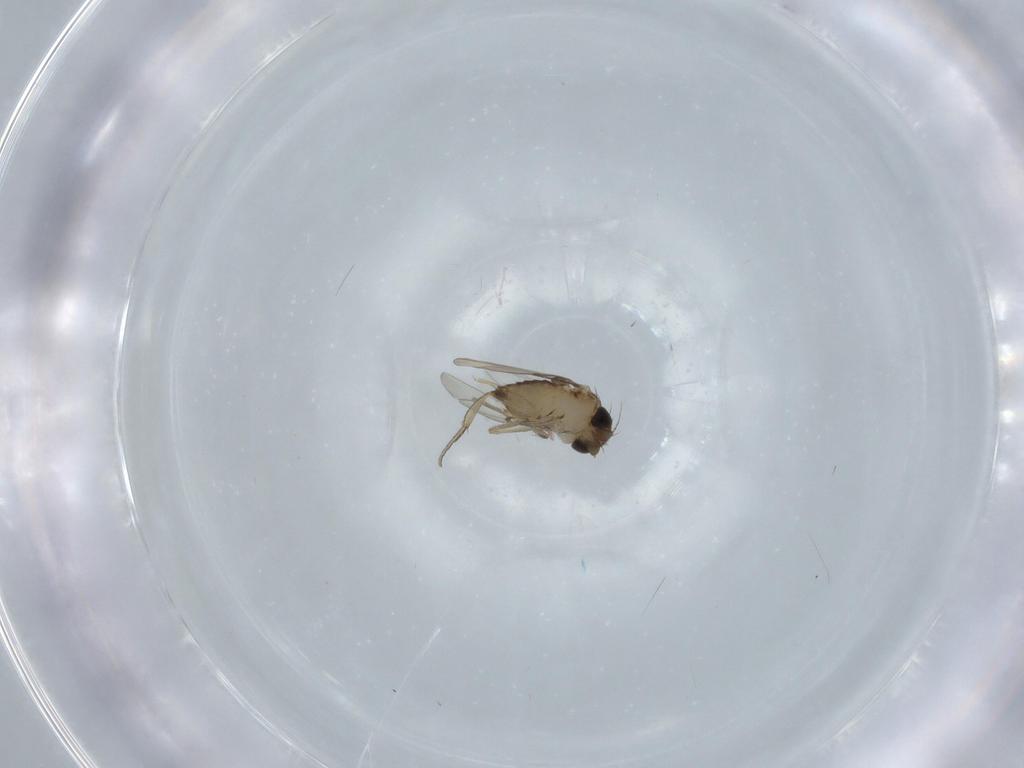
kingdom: Animalia
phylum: Arthropoda
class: Insecta
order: Diptera
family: Phoridae
